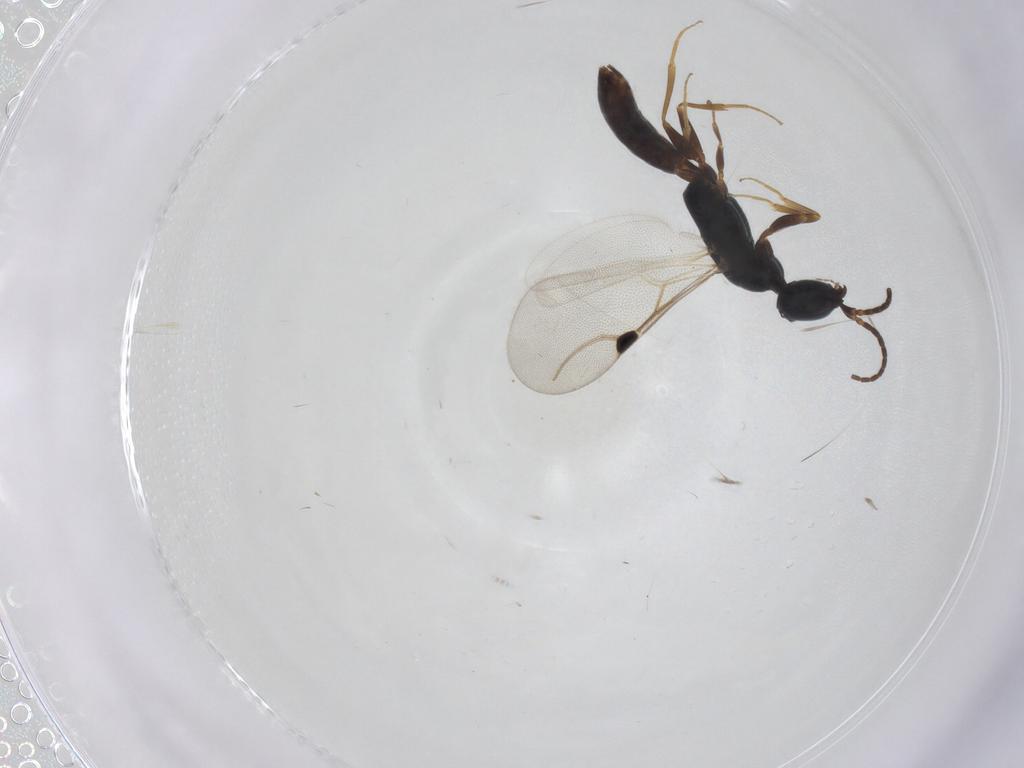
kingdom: Animalia
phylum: Arthropoda
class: Insecta
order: Hymenoptera
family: Bethylidae
